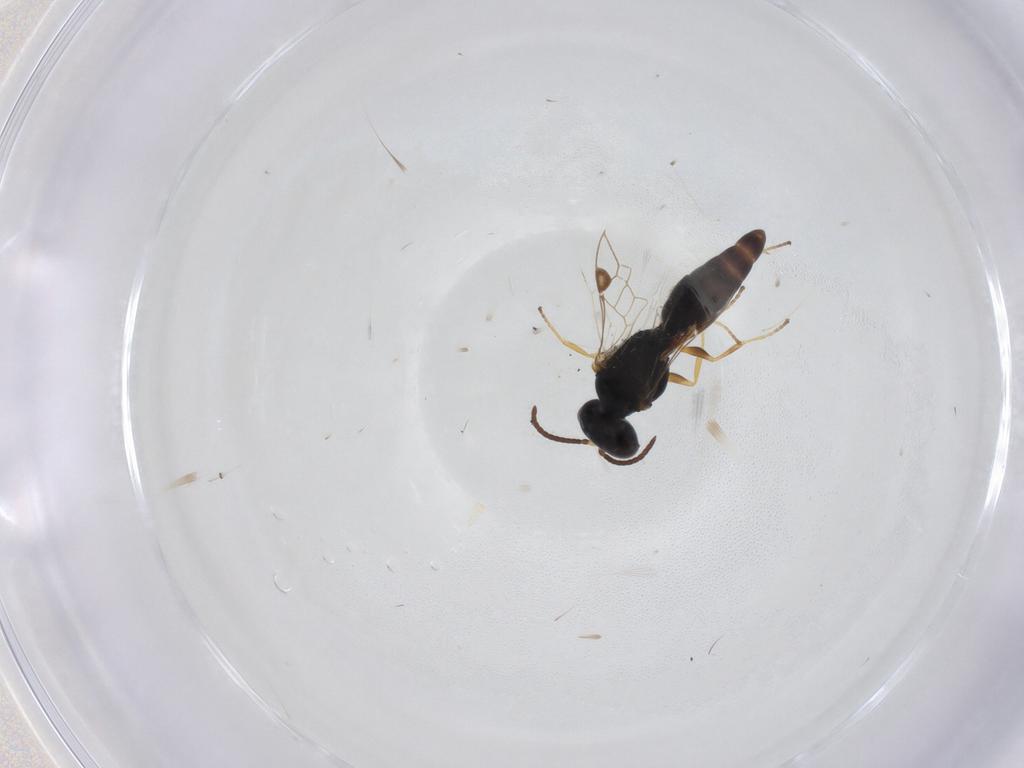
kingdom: Animalia
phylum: Arthropoda
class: Insecta
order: Hymenoptera
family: Pemphredonidae
